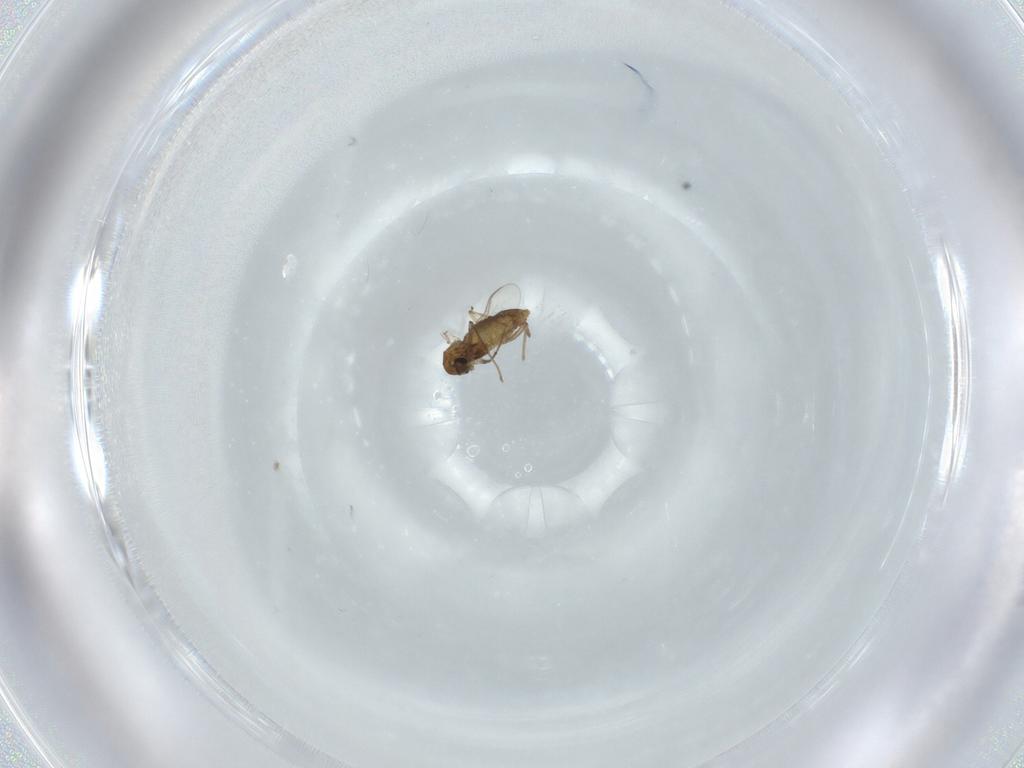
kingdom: Animalia
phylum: Arthropoda
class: Insecta
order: Diptera
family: Chironomidae
